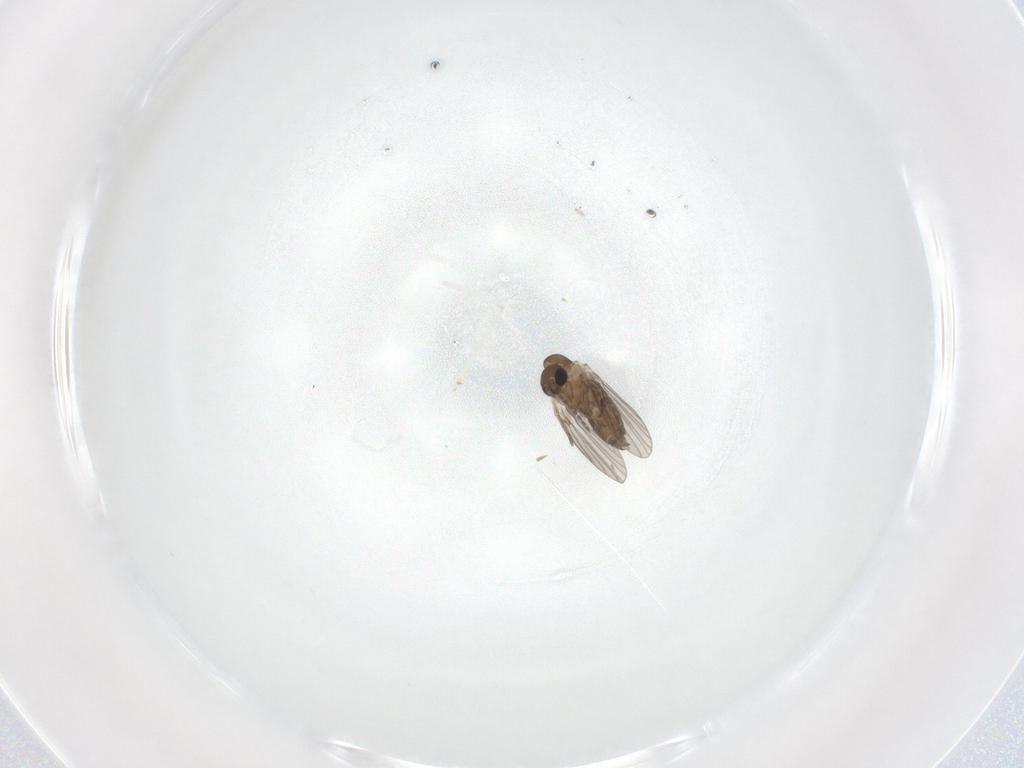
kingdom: Animalia
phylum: Arthropoda
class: Insecta
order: Diptera
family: Cecidomyiidae
